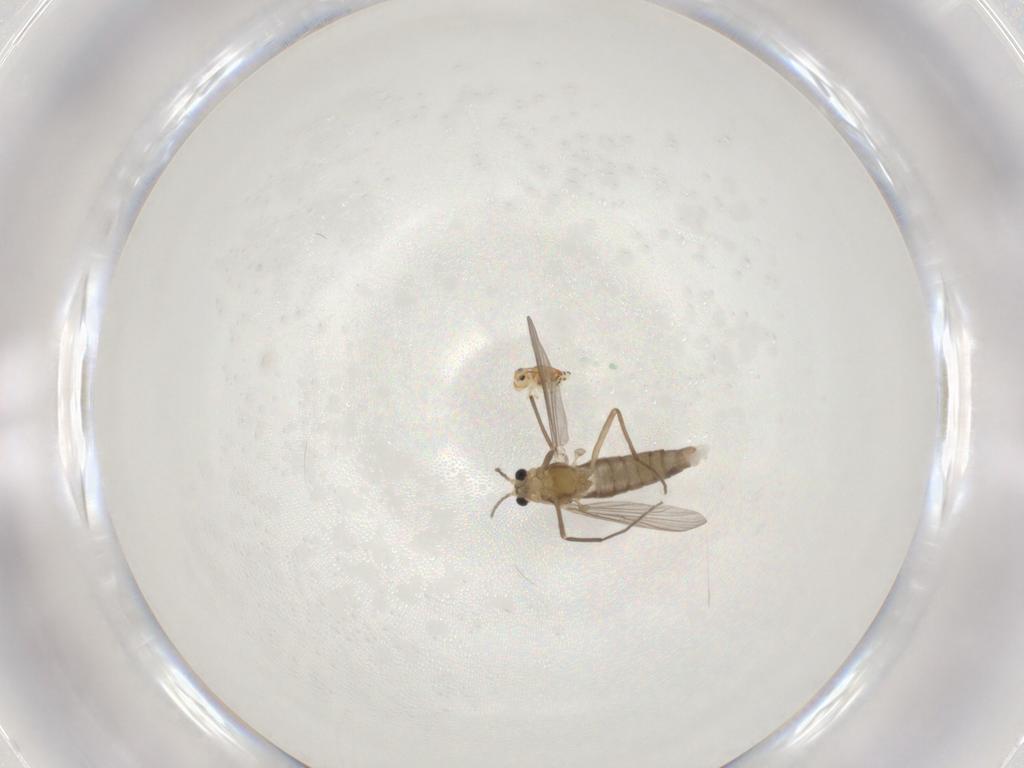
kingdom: Animalia
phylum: Arthropoda
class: Insecta
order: Diptera
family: Chironomidae
